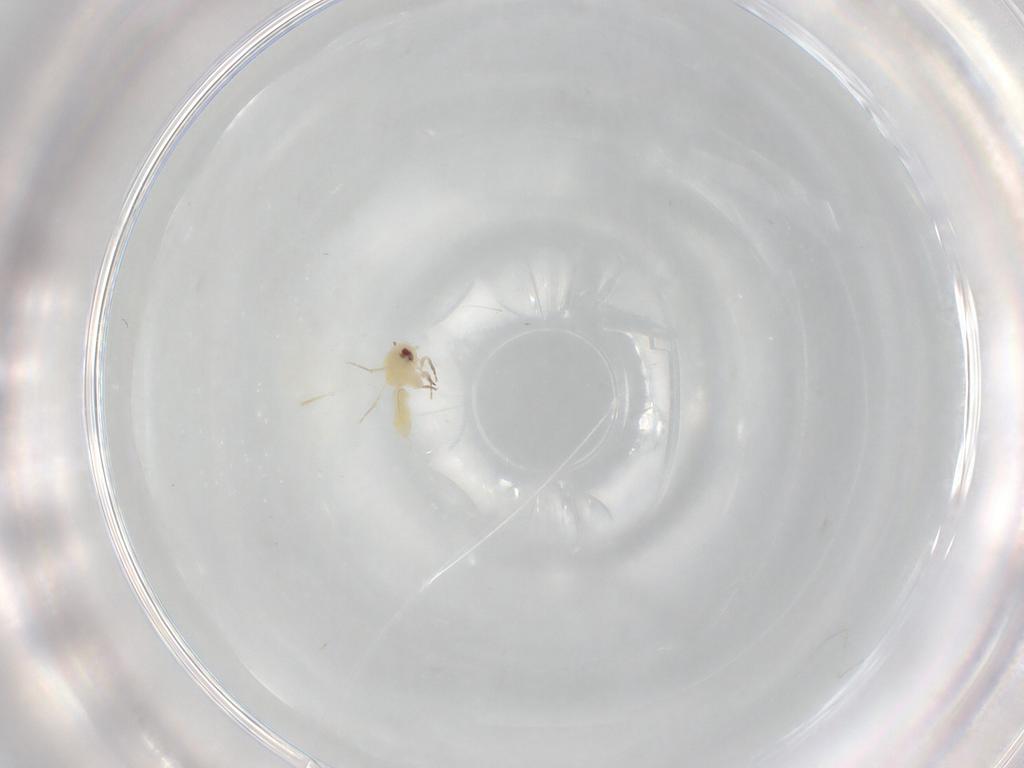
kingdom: Animalia
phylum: Arthropoda
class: Insecta
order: Hemiptera
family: Aleyrodidae
